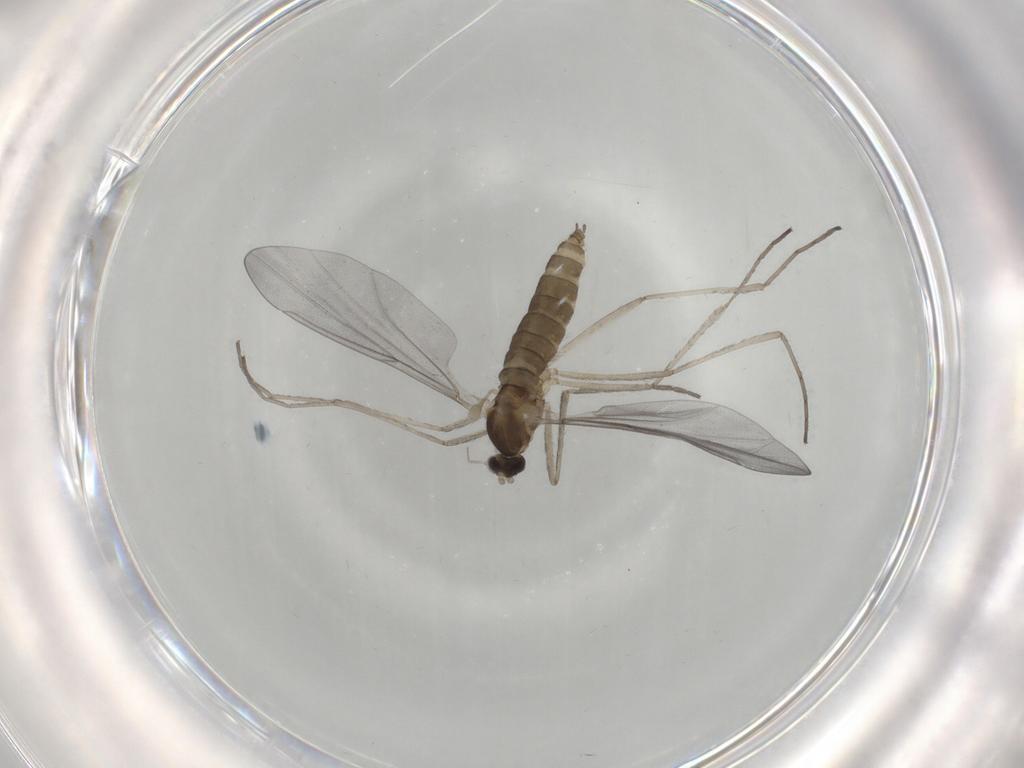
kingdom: Animalia
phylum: Arthropoda
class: Insecta
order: Diptera
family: Cecidomyiidae
